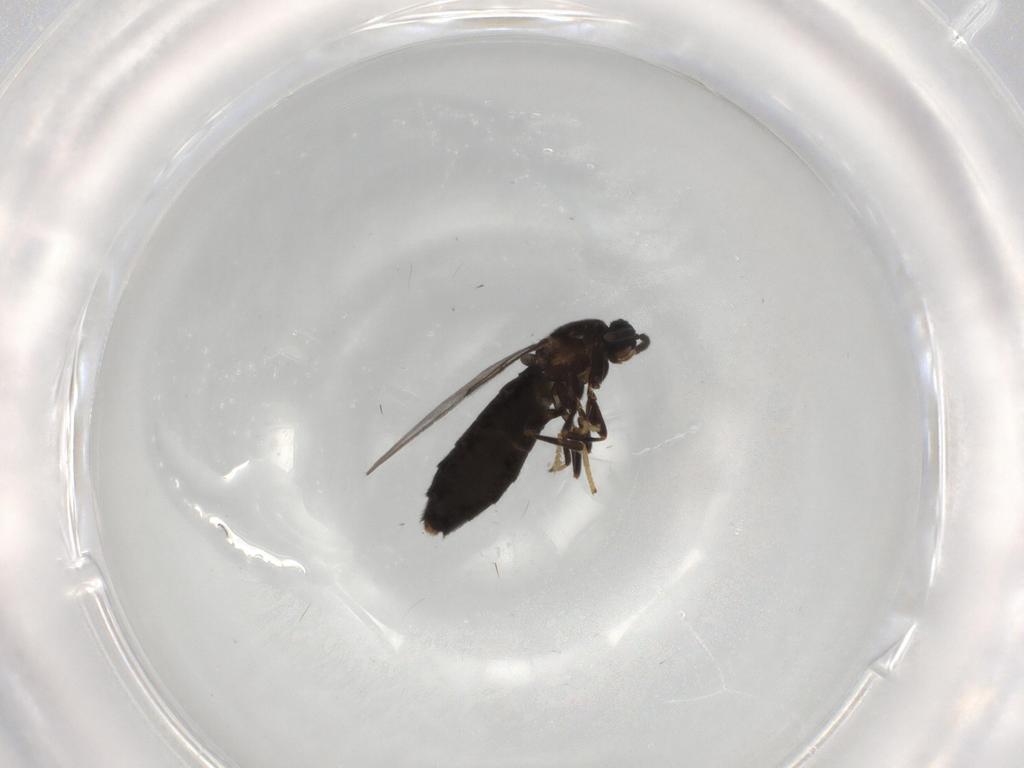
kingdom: Animalia
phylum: Arthropoda
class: Insecta
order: Diptera
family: Scatopsidae
